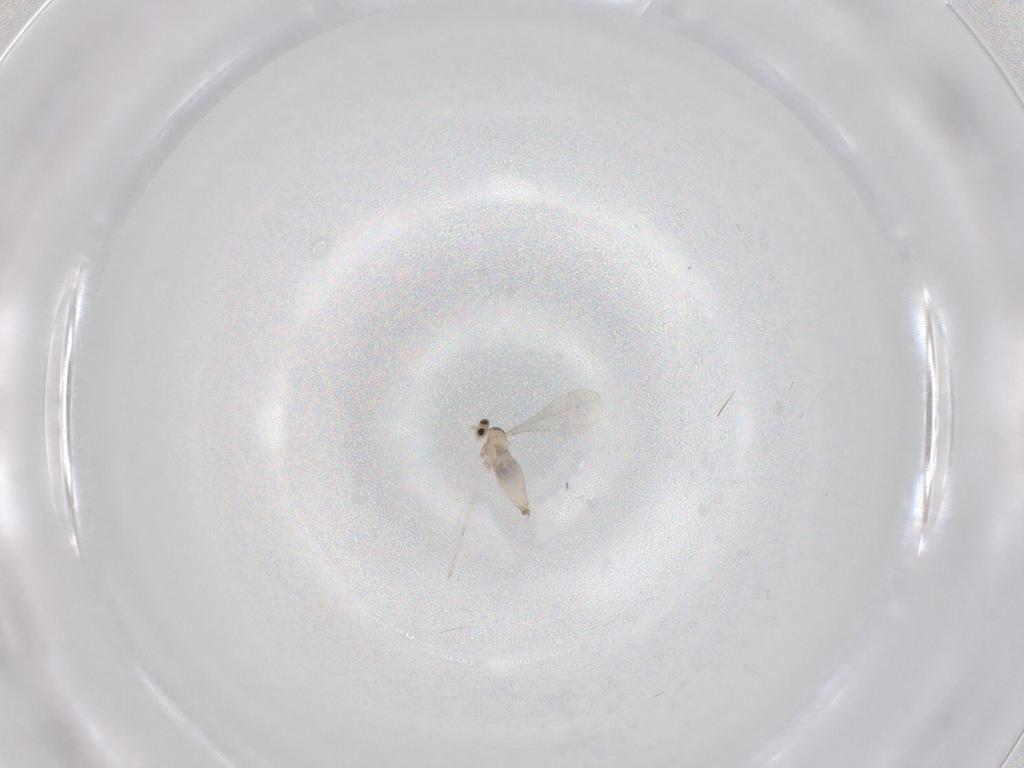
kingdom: Animalia
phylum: Arthropoda
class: Insecta
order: Diptera
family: Cecidomyiidae
